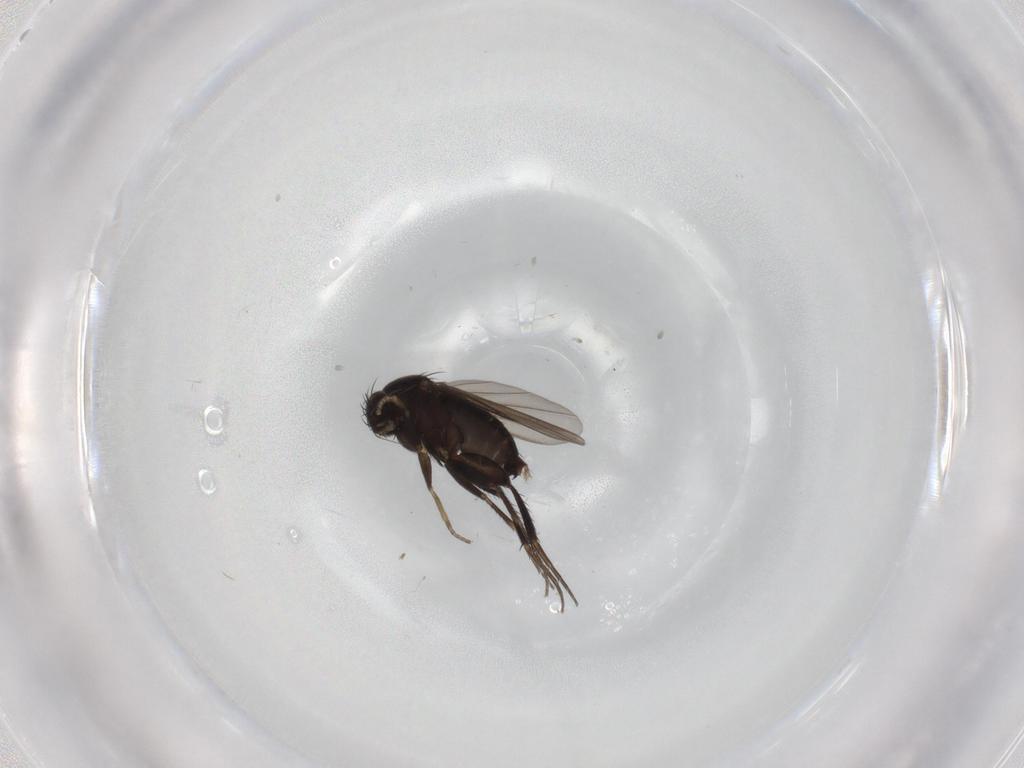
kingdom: Animalia
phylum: Arthropoda
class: Insecta
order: Diptera
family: Phoridae
